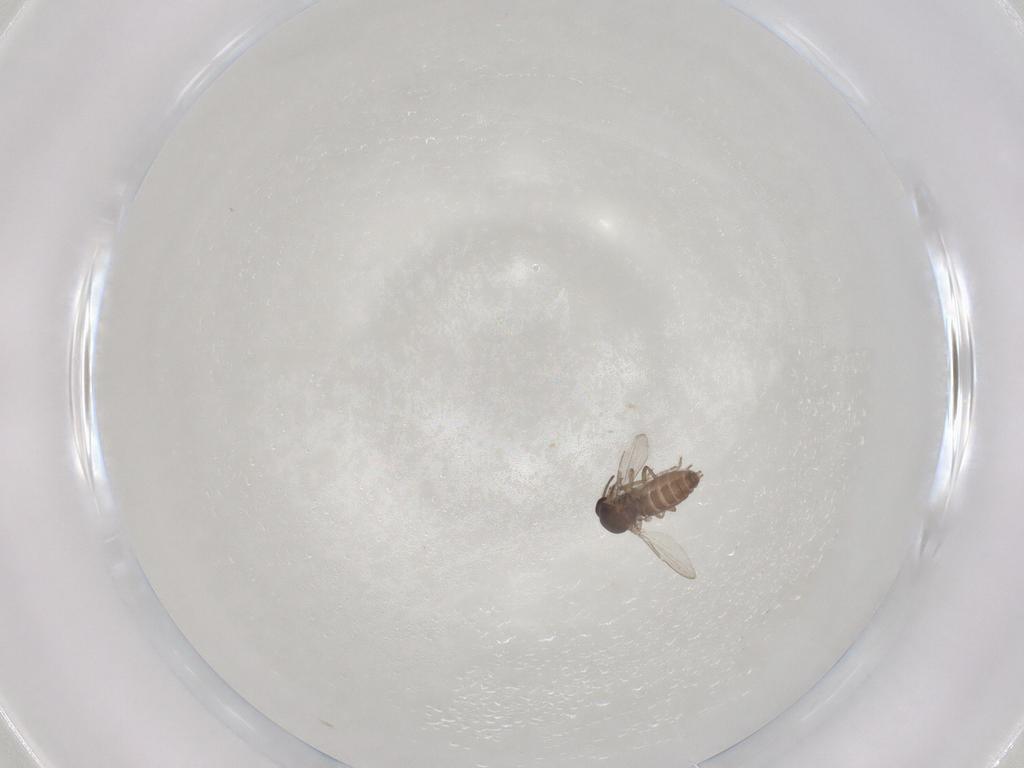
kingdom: Animalia
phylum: Arthropoda
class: Insecta
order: Diptera
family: Ceratopogonidae
